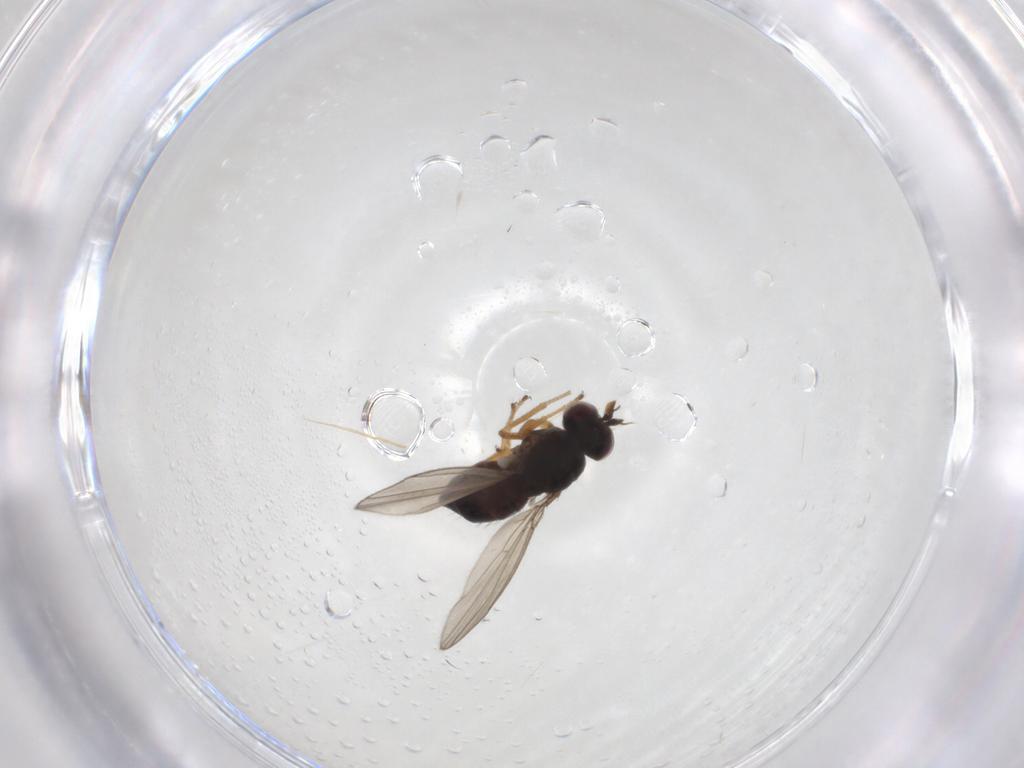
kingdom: Animalia
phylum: Arthropoda
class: Insecta
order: Diptera
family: Ephydridae
